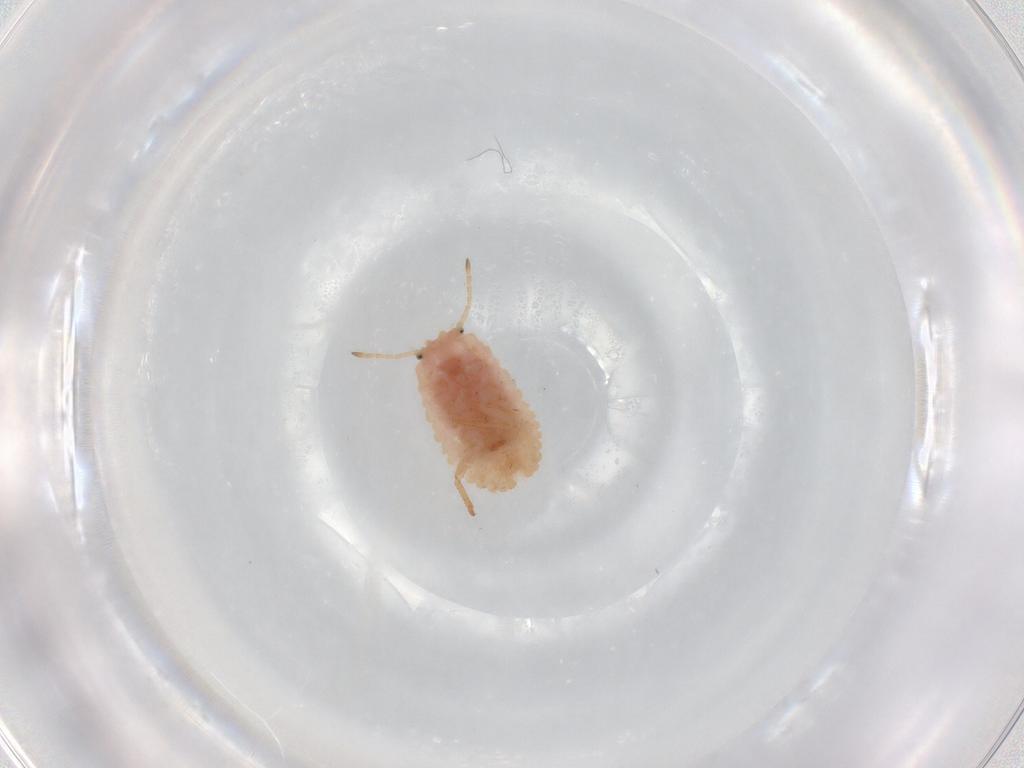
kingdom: Animalia
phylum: Arthropoda
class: Insecta
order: Hemiptera
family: Coccoidea_incertae_sedis
